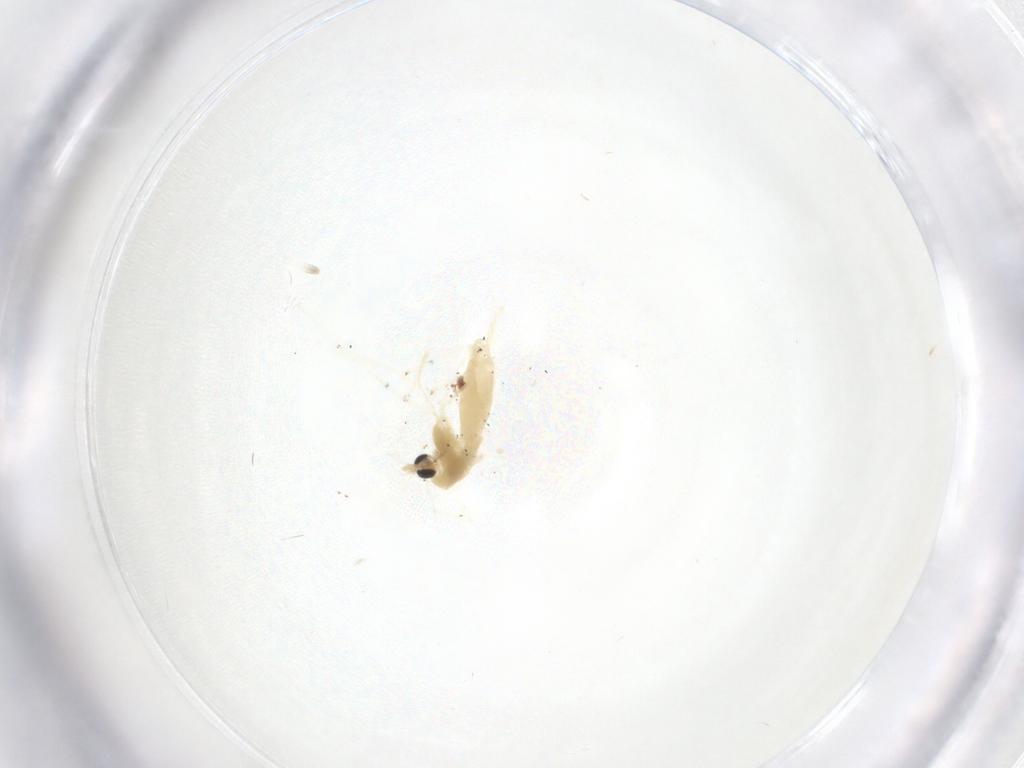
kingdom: Animalia
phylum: Arthropoda
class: Insecta
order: Diptera
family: Chironomidae
